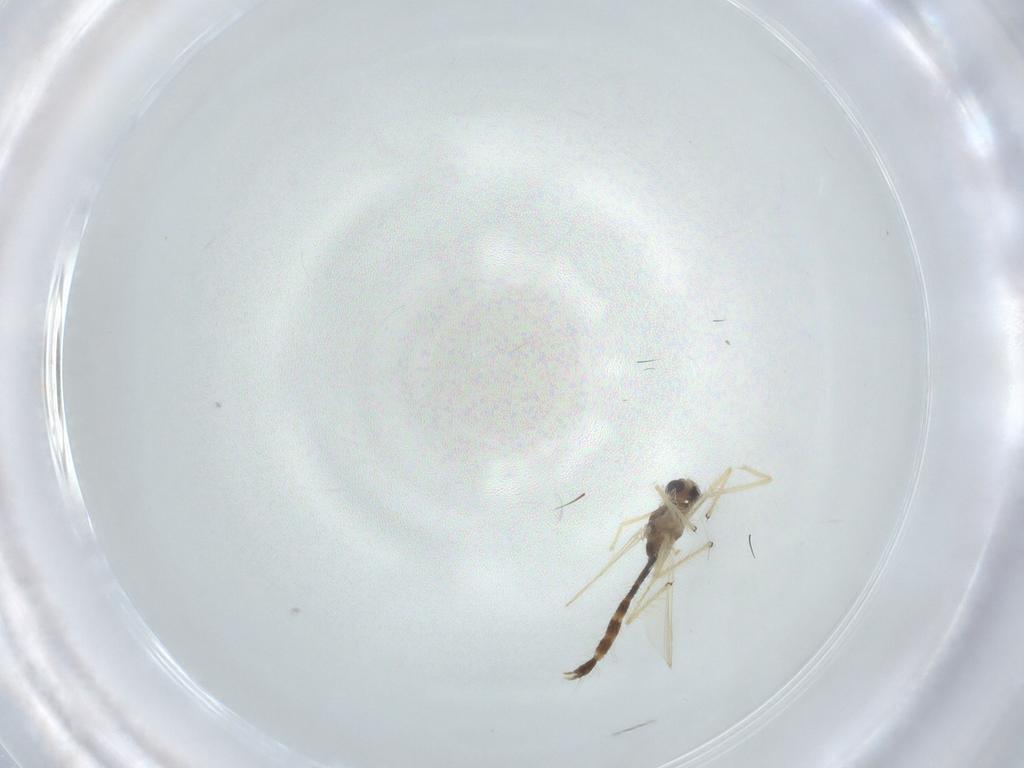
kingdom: Animalia
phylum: Arthropoda
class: Insecta
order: Diptera
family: Chironomidae
